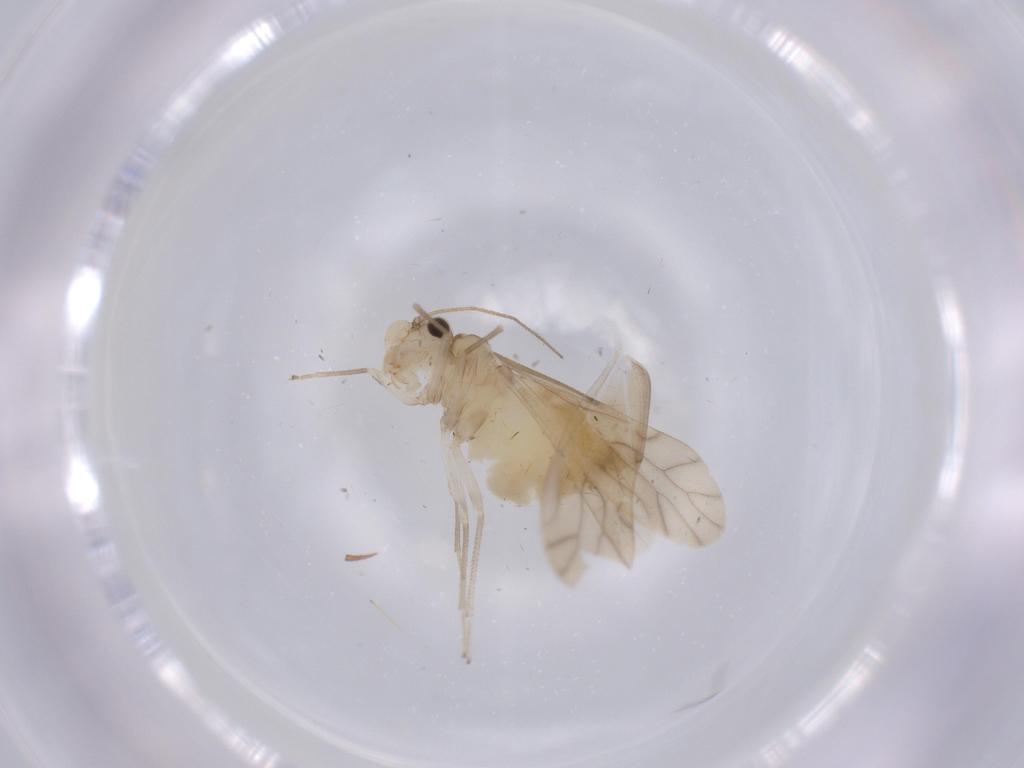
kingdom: Animalia
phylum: Arthropoda
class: Insecta
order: Psocodea
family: Caeciliusidae
